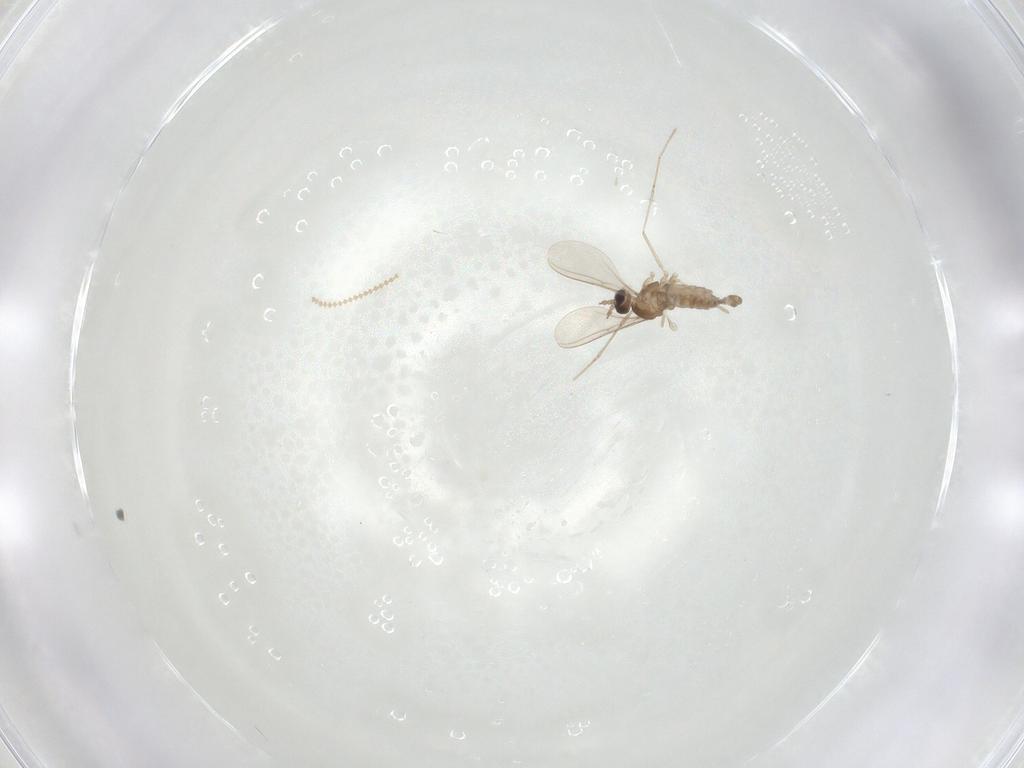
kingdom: Animalia
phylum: Arthropoda
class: Insecta
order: Diptera
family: Cecidomyiidae
